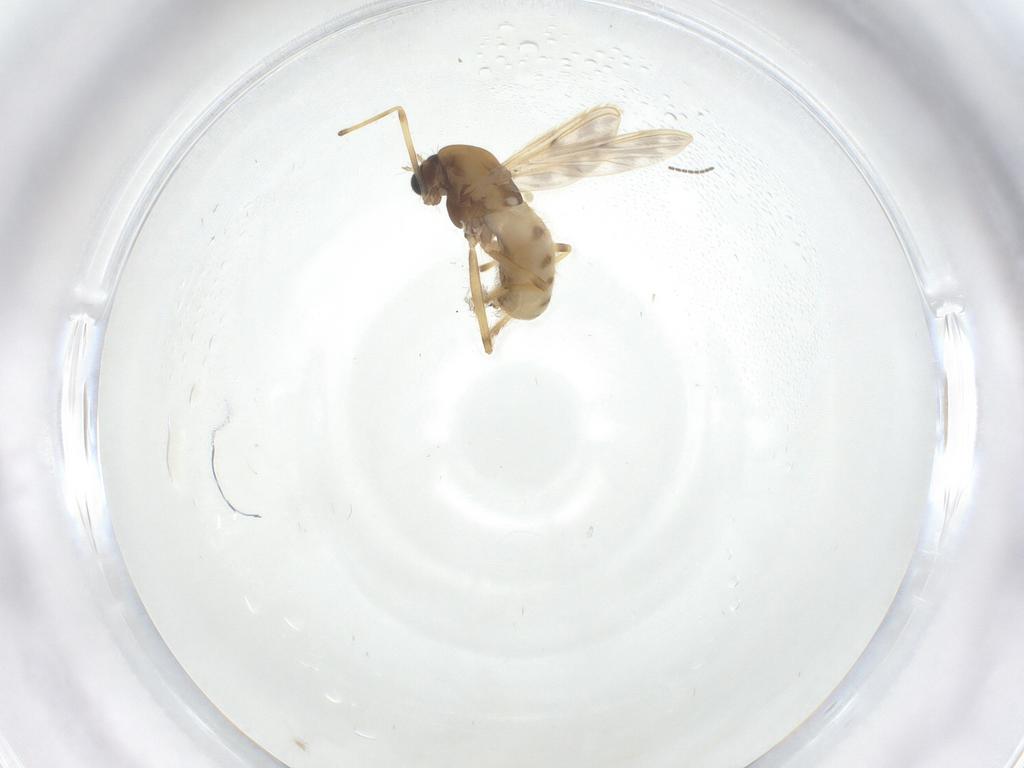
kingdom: Animalia
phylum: Arthropoda
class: Insecta
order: Diptera
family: Chironomidae
